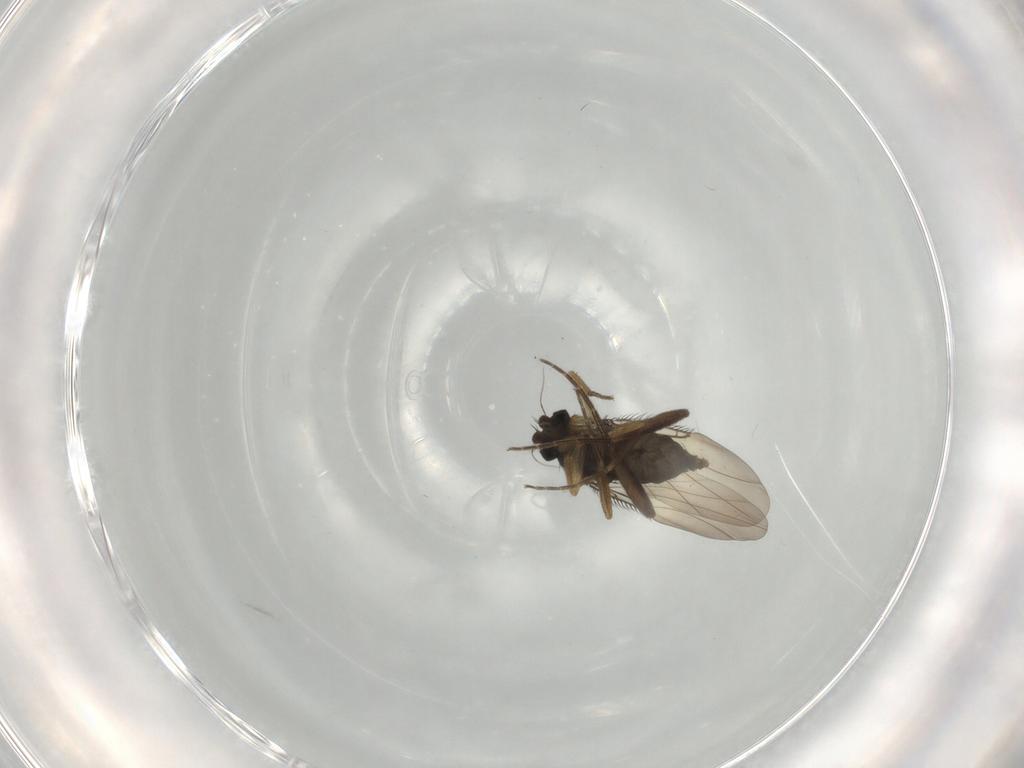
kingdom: Animalia
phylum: Arthropoda
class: Insecta
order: Diptera
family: Phoridae
